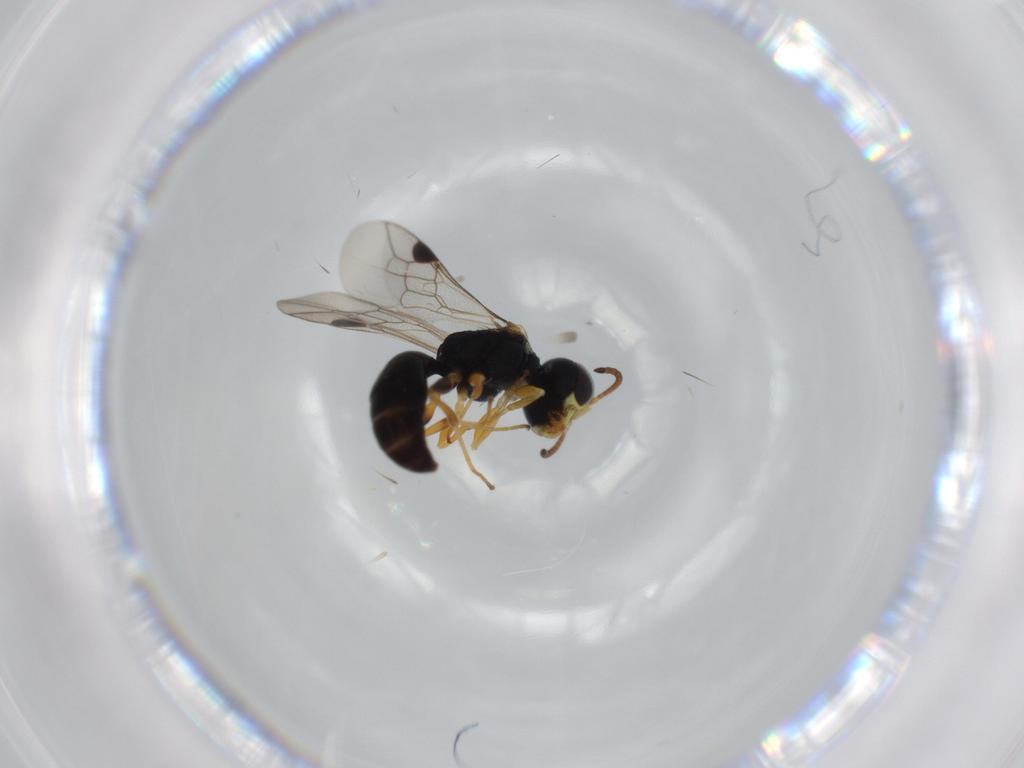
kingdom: Animalia
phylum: Arthropoda
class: Insecta
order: Hymenoptera
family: Pemphredonidae
